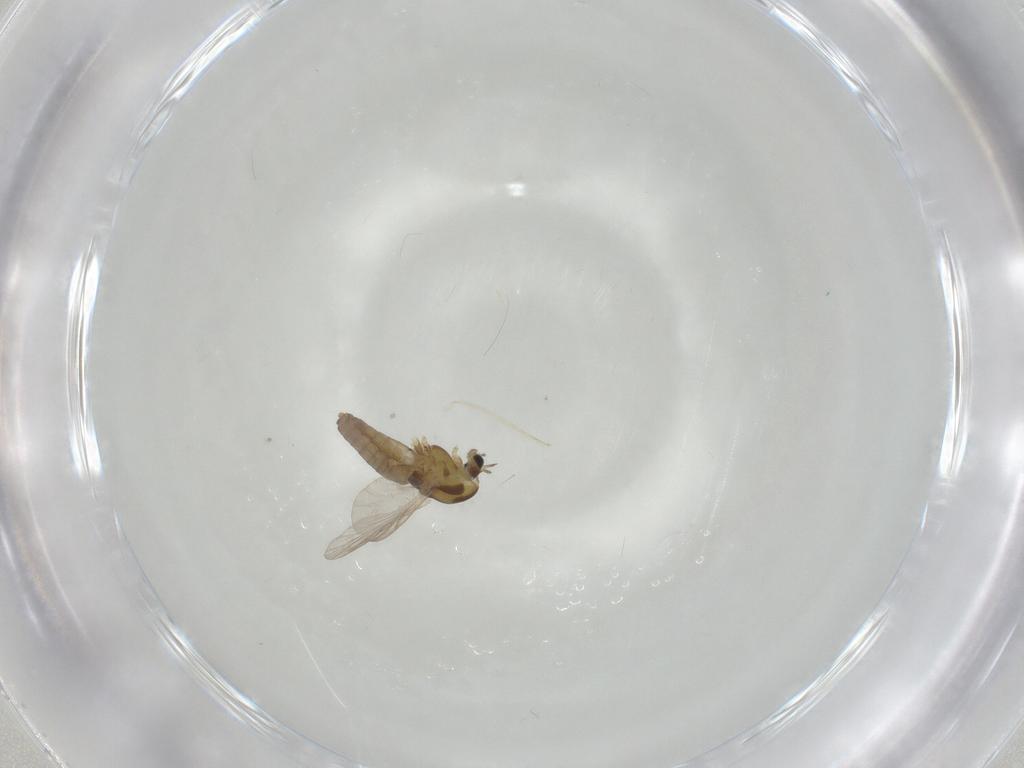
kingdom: Animalia
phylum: Arthropoda
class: Insecta
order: Diptera
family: Chironomidae
